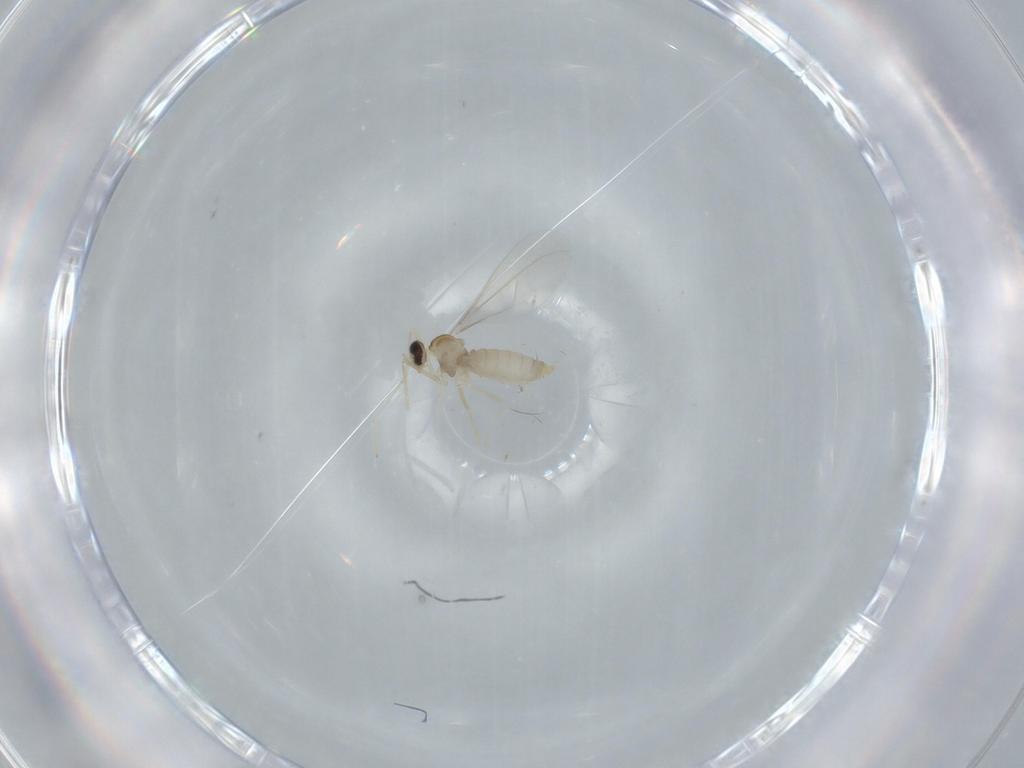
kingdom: Animalia
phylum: Arthropoda
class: Insecta
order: Diptera
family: Cecidomyiidae
